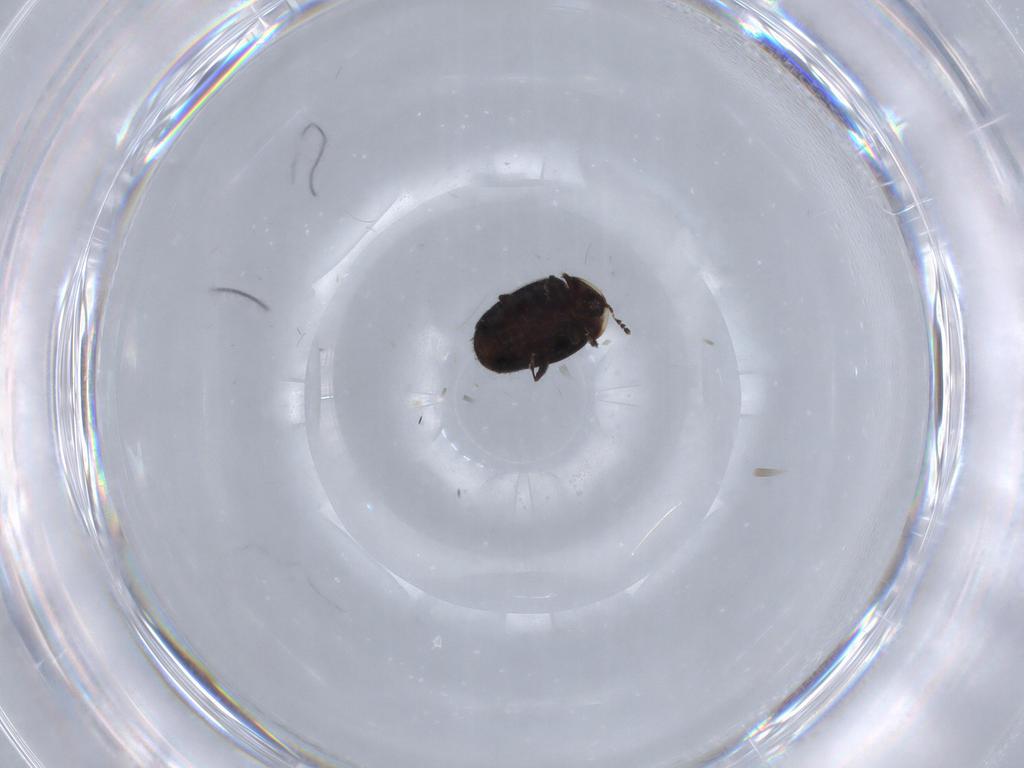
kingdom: Animalia
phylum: Arthropoda
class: Insecta
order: Coleoptera
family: Corylophidae
